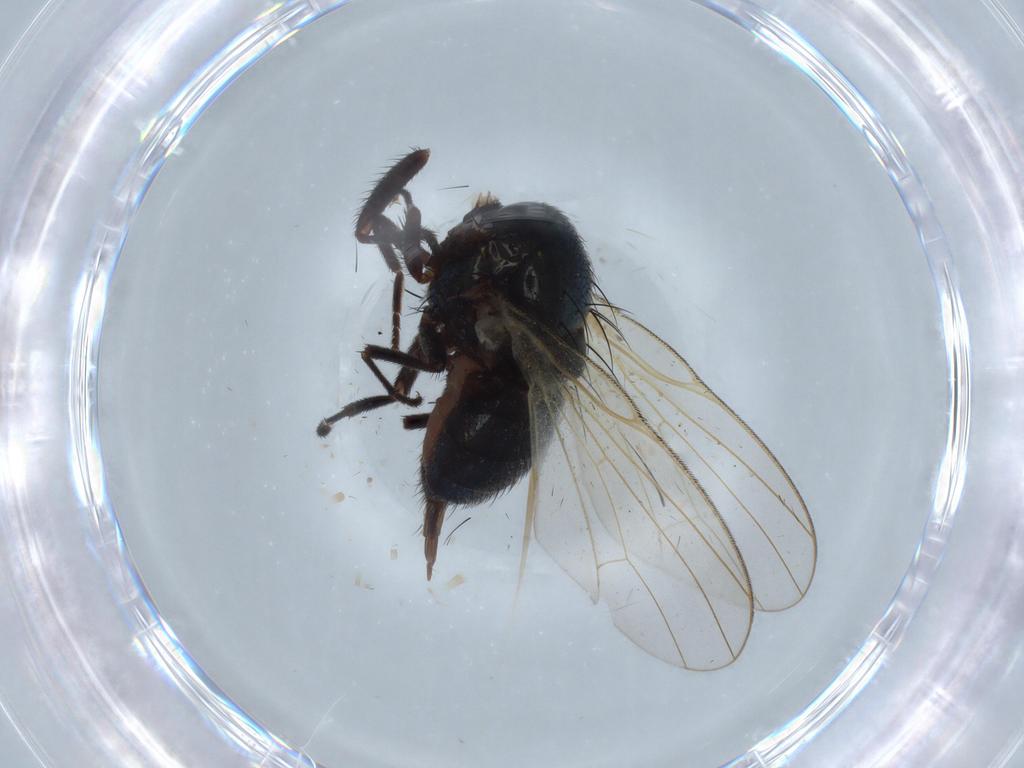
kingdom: Animalia
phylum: Arthropoda
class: Insecta
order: Diptera
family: Lonchaeidae
